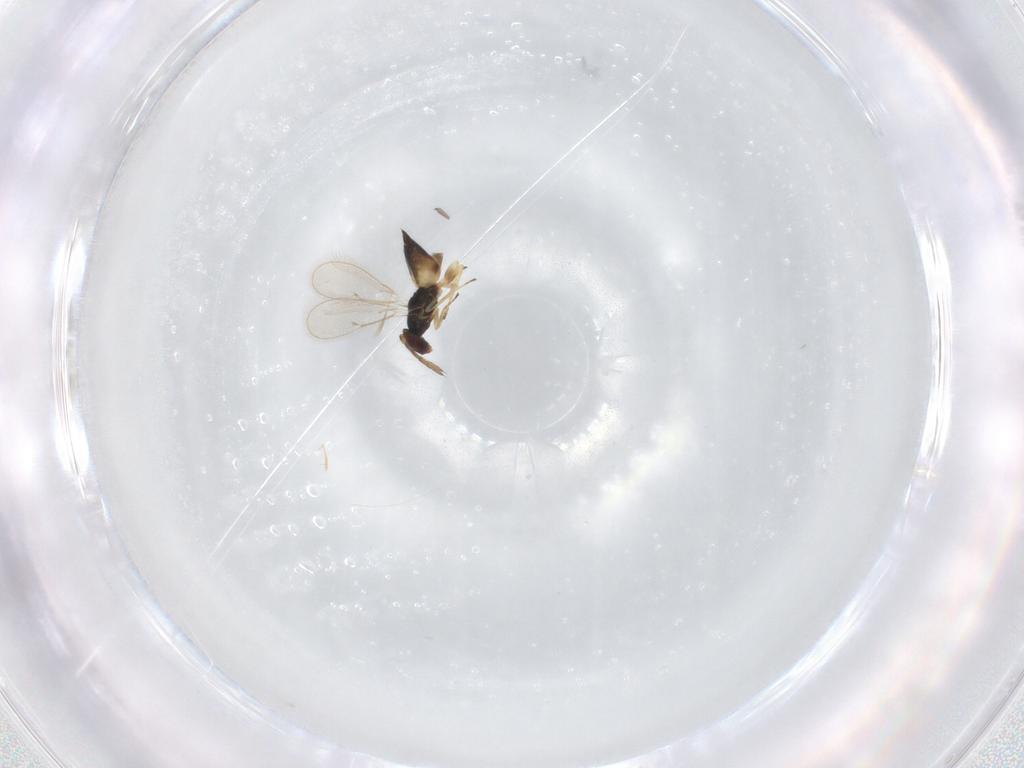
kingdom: Animalia
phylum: Arthropoda
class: Insecta
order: Hymenoptera
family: Eulophidae
